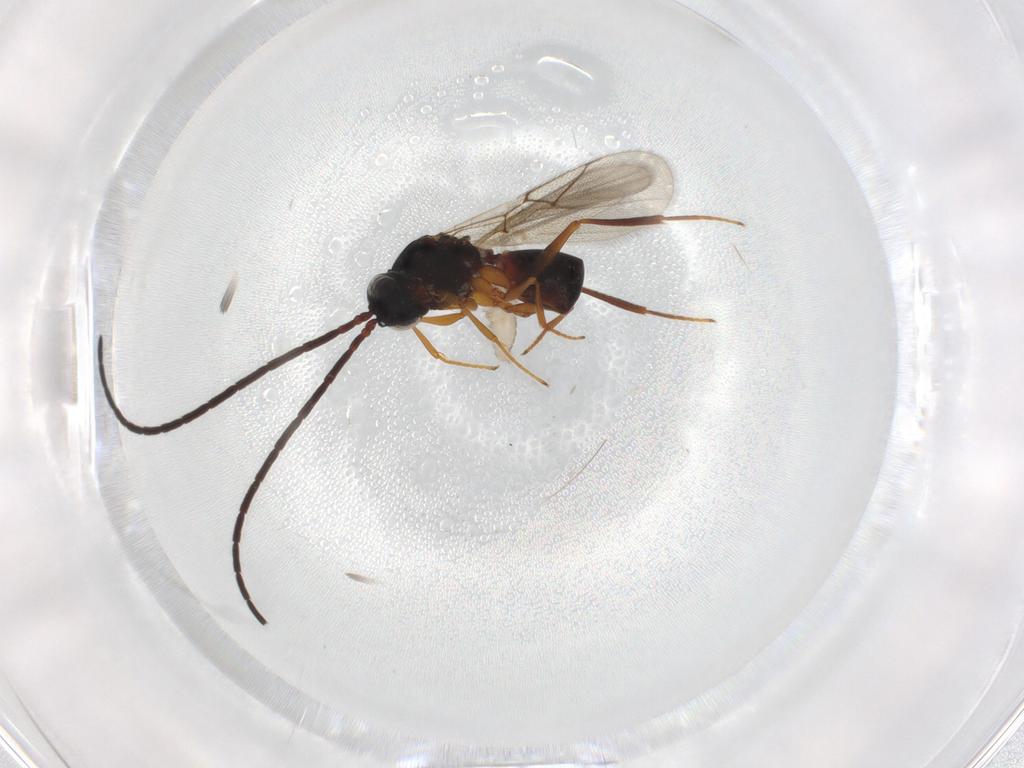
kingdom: Animalia
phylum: Arthropoda
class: Insecta
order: Hymenoptera
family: Figitidae
